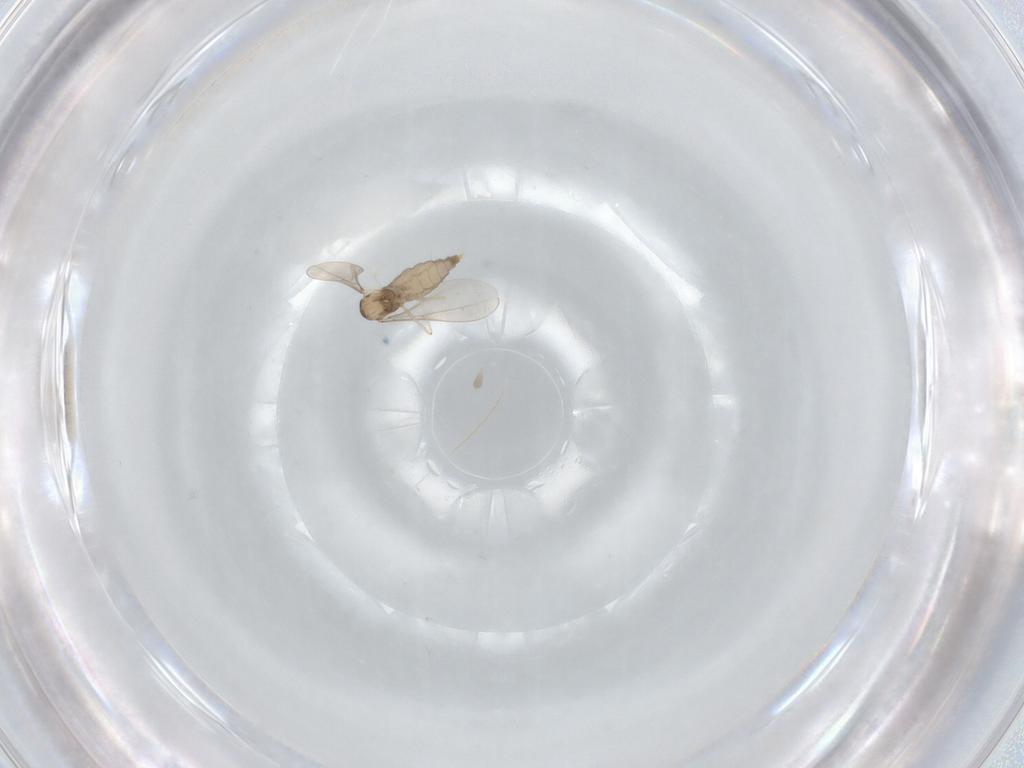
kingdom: Animalia
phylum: Arthropoda
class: Insecta
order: Diptera
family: Phoridae
